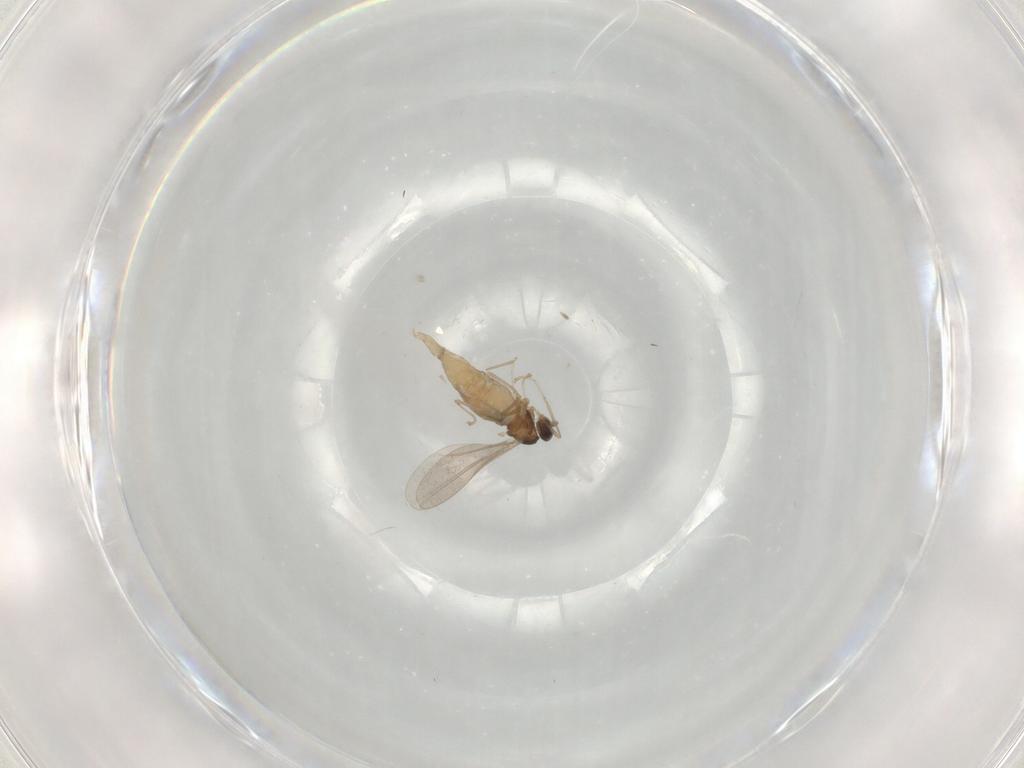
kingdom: Animalia
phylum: Arthropoda
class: Insecta
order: Diptera
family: Cecidomyiidae
